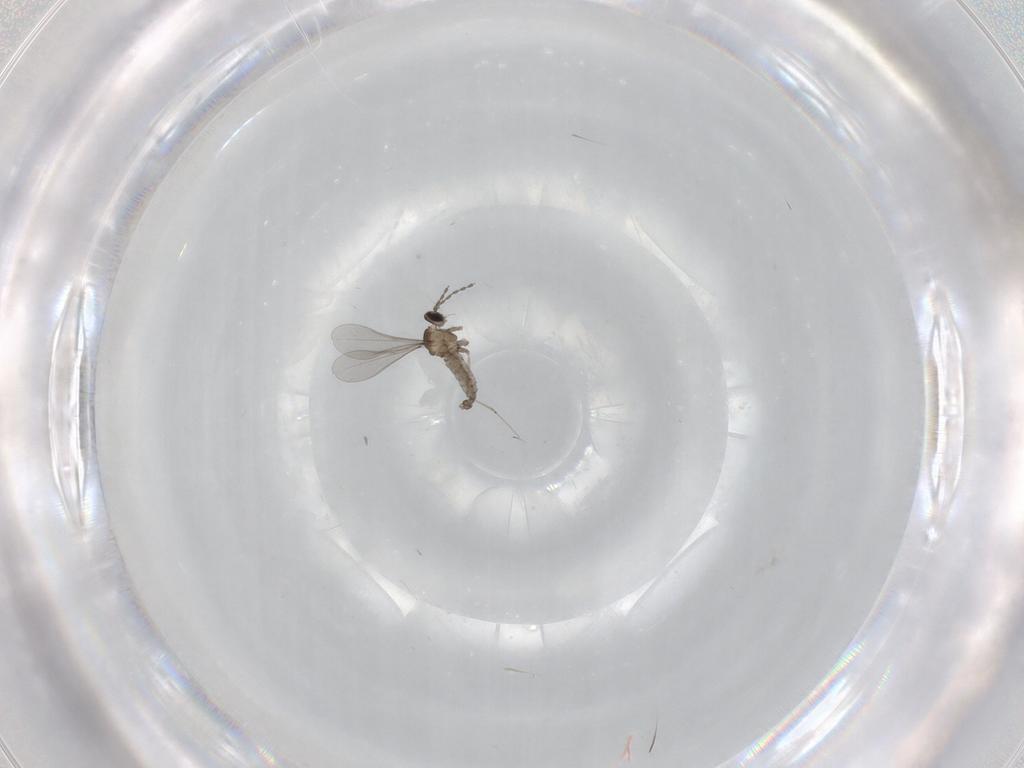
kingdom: Animalia
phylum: Arthropoda
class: Insecta
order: Diptera
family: Cecidomyiidae
